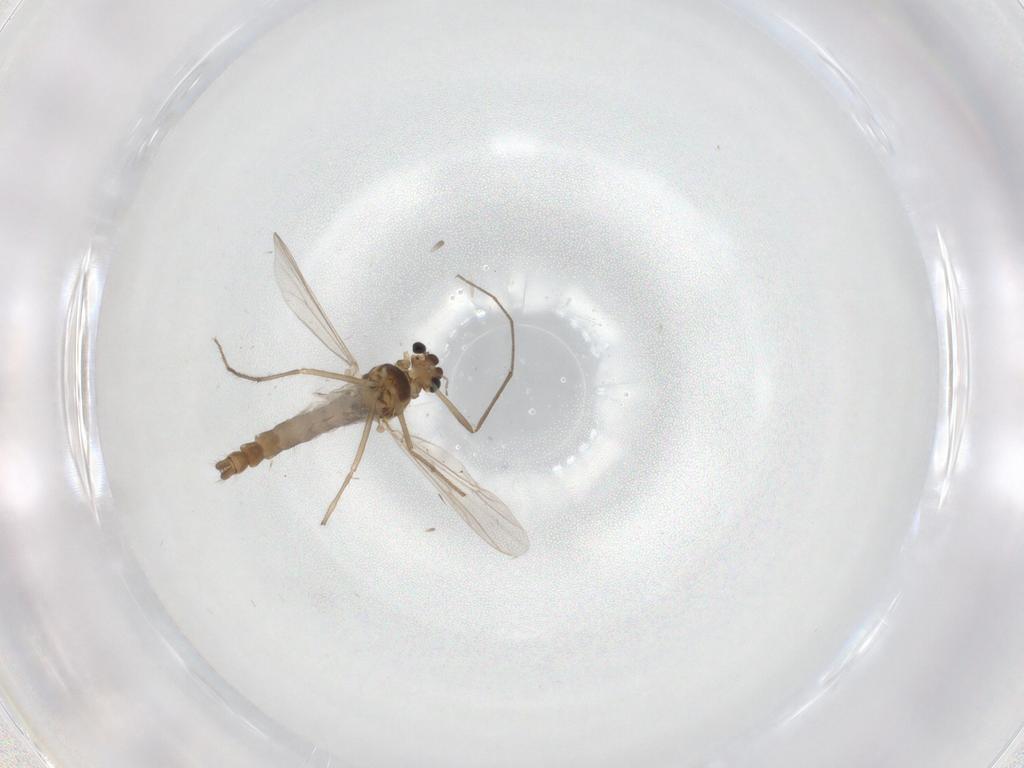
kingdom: Animalia
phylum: Arthropoda
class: Insecta
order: Diptera
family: Chironomidae
